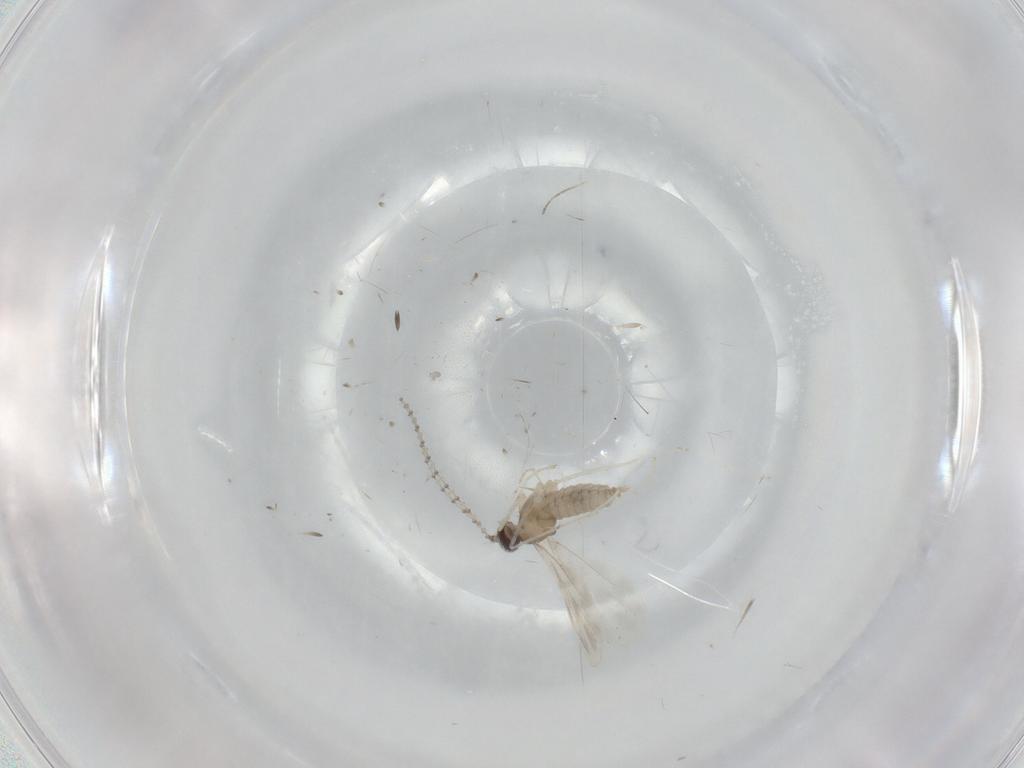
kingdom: Animalia
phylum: Arthropoda
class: Insecta
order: Diptera
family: Cecidomyiidae
